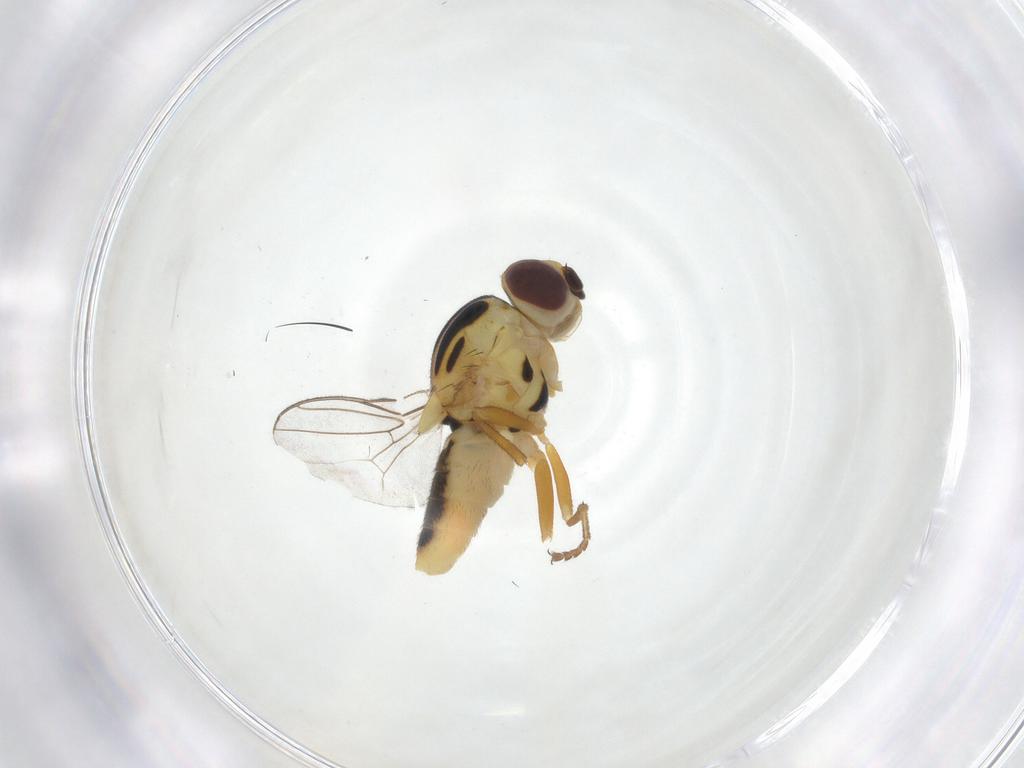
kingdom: Animalia
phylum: Arthropoda
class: Insecta
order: Diptera
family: Chloropidae
